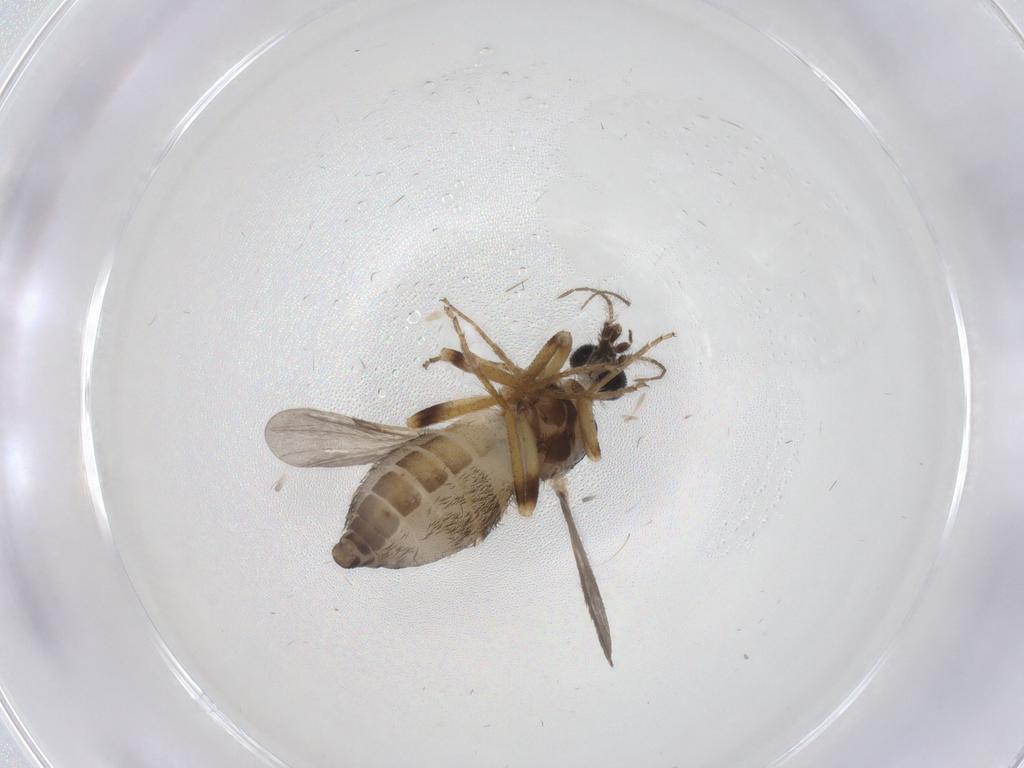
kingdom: Animalia
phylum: Arthropoda
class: Insecta
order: Diptera
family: Ceratopogonidae
